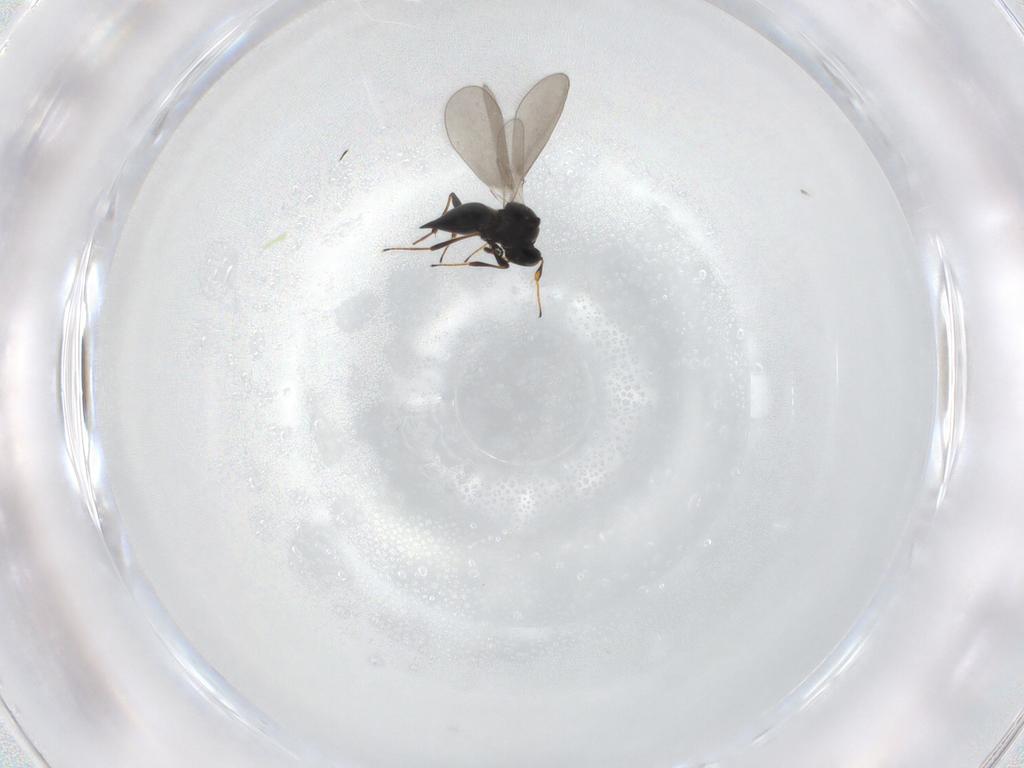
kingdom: Animalia
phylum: Arthropoda
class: Insecta
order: Hymenoptera
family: Platygastridae
